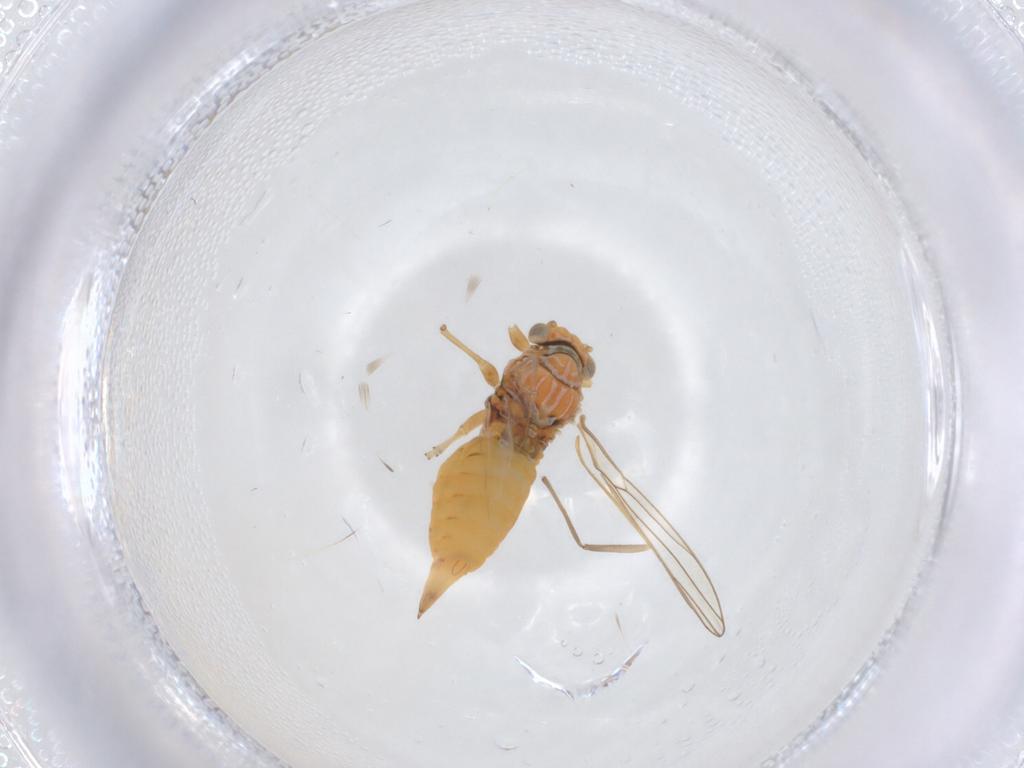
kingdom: Animalia
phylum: Arthropoda
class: Insecta
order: Diptera
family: Chironomidae
